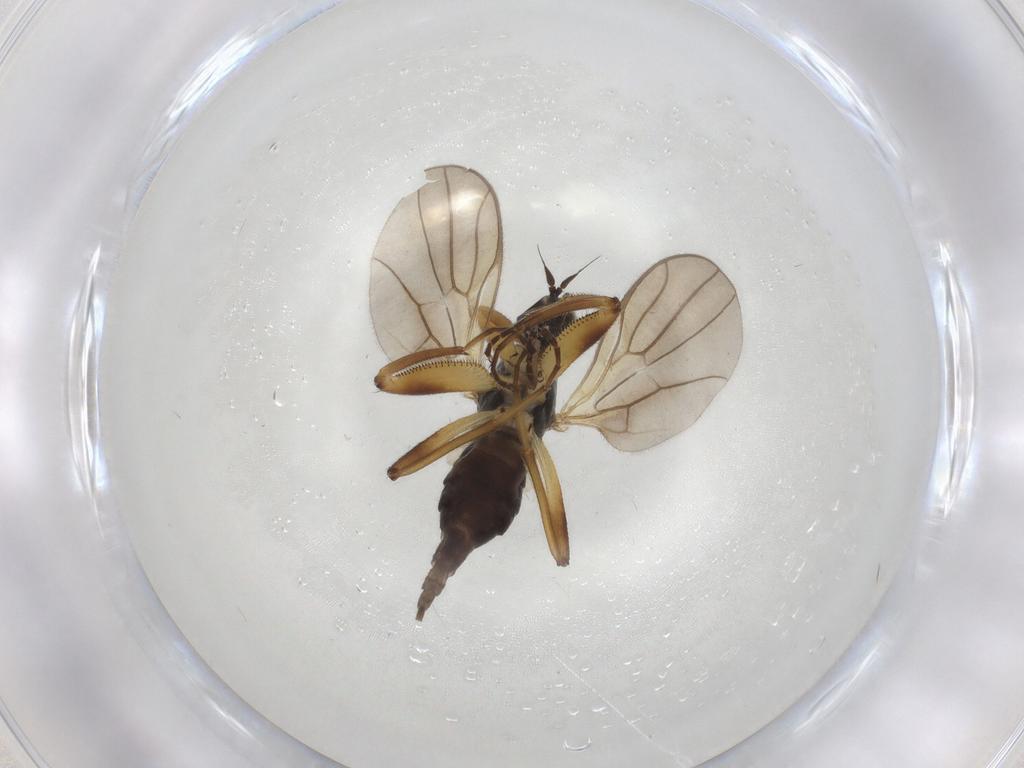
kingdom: Animalia
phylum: Arthropoda
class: Insecta
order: Diptera
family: Hybotidae
